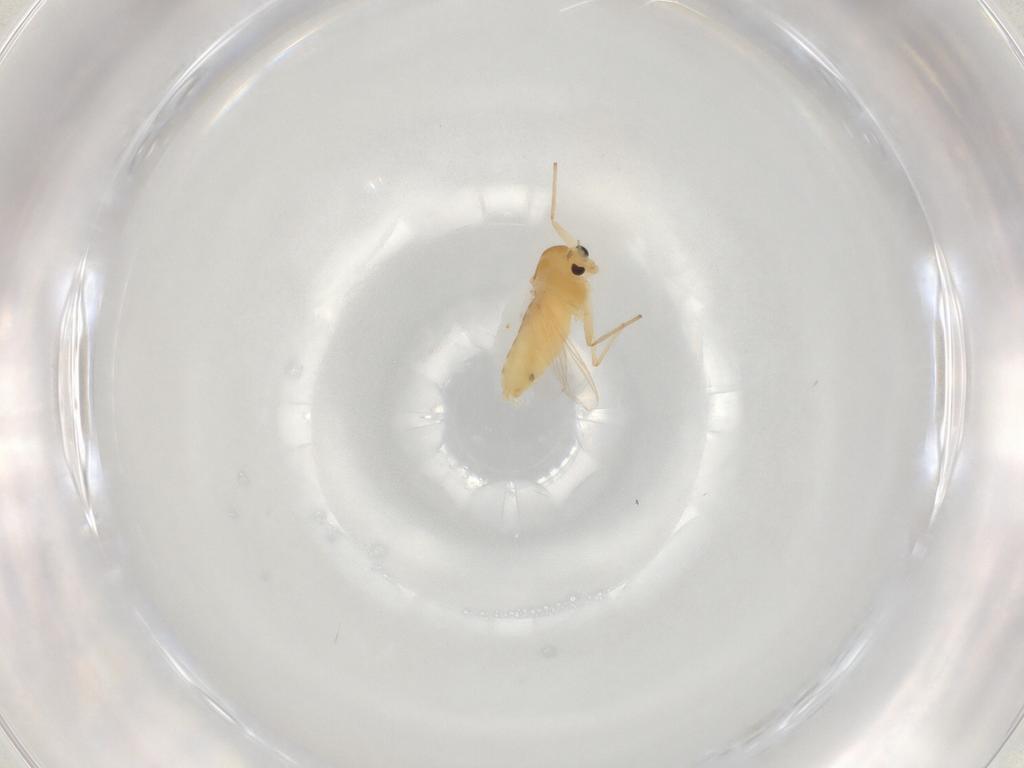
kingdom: Animalia
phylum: Arthropoda
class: Insecta
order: Diptera
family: Chironomidae
